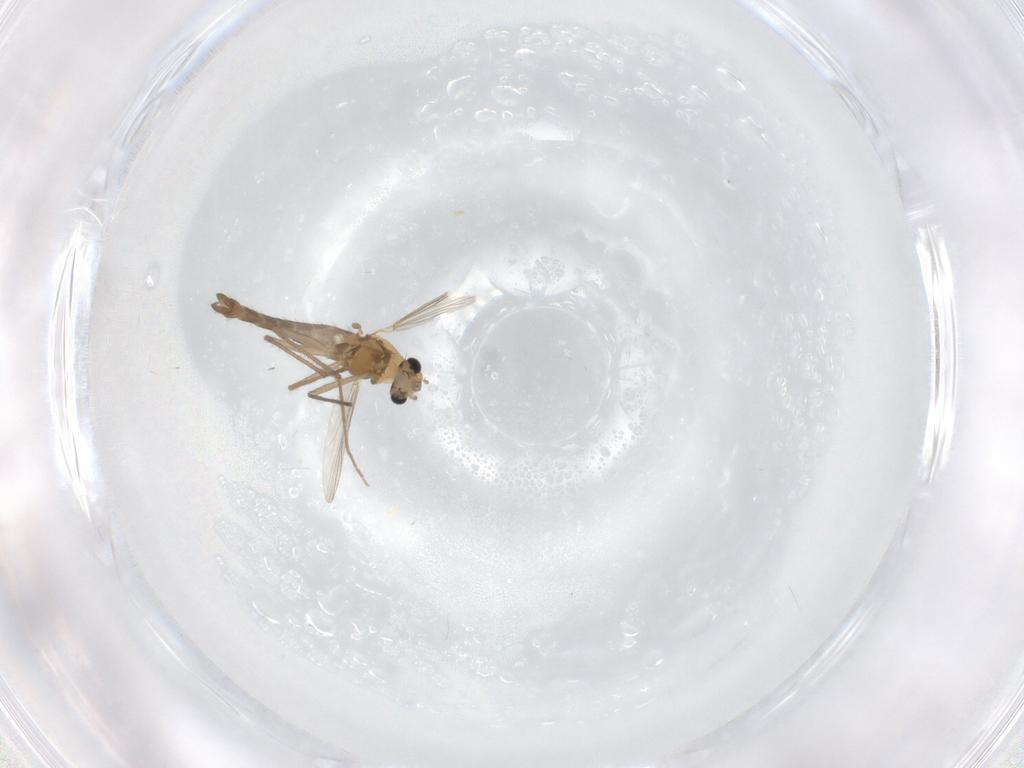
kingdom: Animalia
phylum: Arthropoda
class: Insecta
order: Diptera
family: Chironomidae
